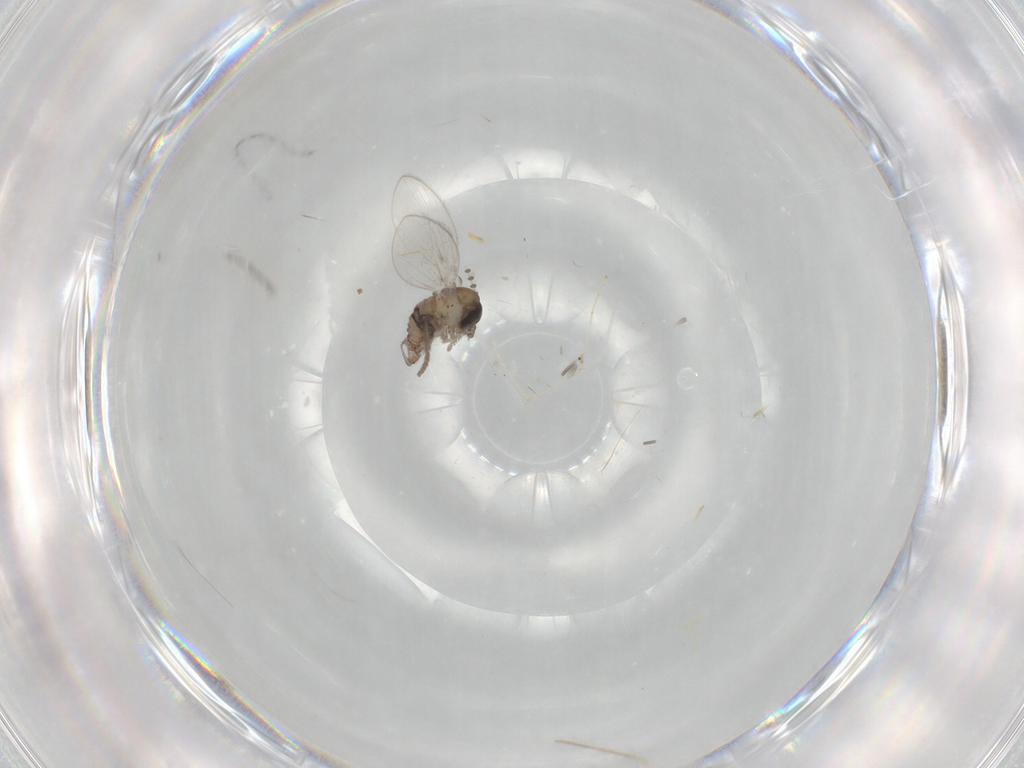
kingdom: Animalia
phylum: Arthropoda
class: Insecta
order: Diptera
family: Psychodidae
